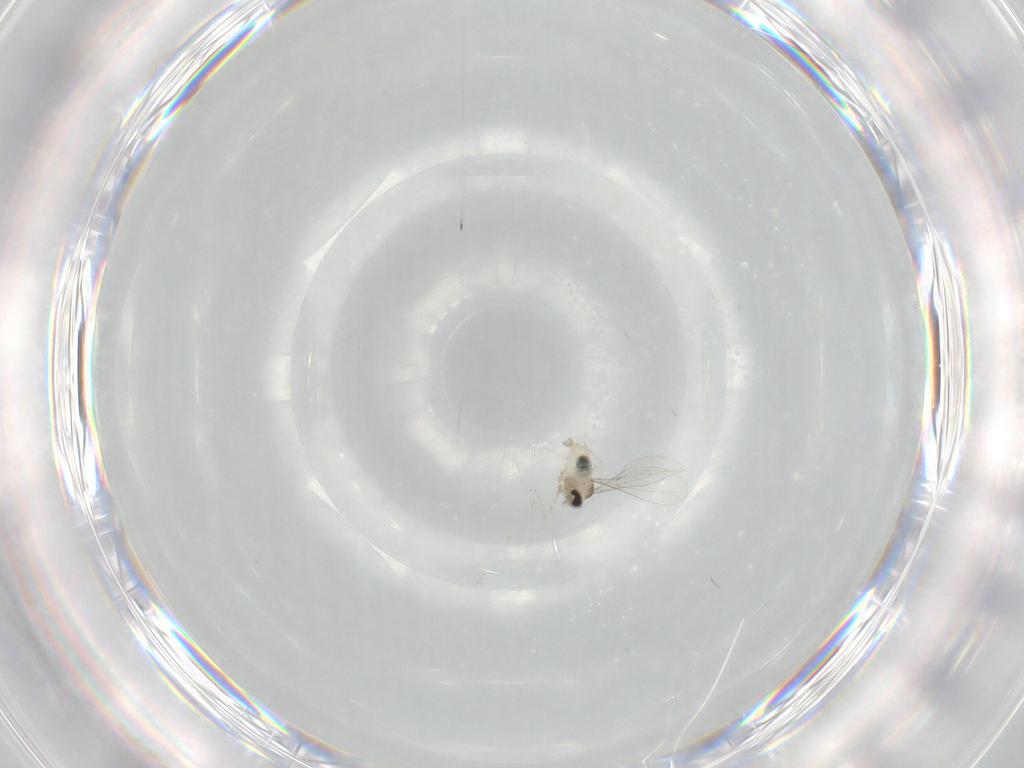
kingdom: Animalia
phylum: Arthropoda
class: Insecta
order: Diptera
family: Cecidomyiidae
